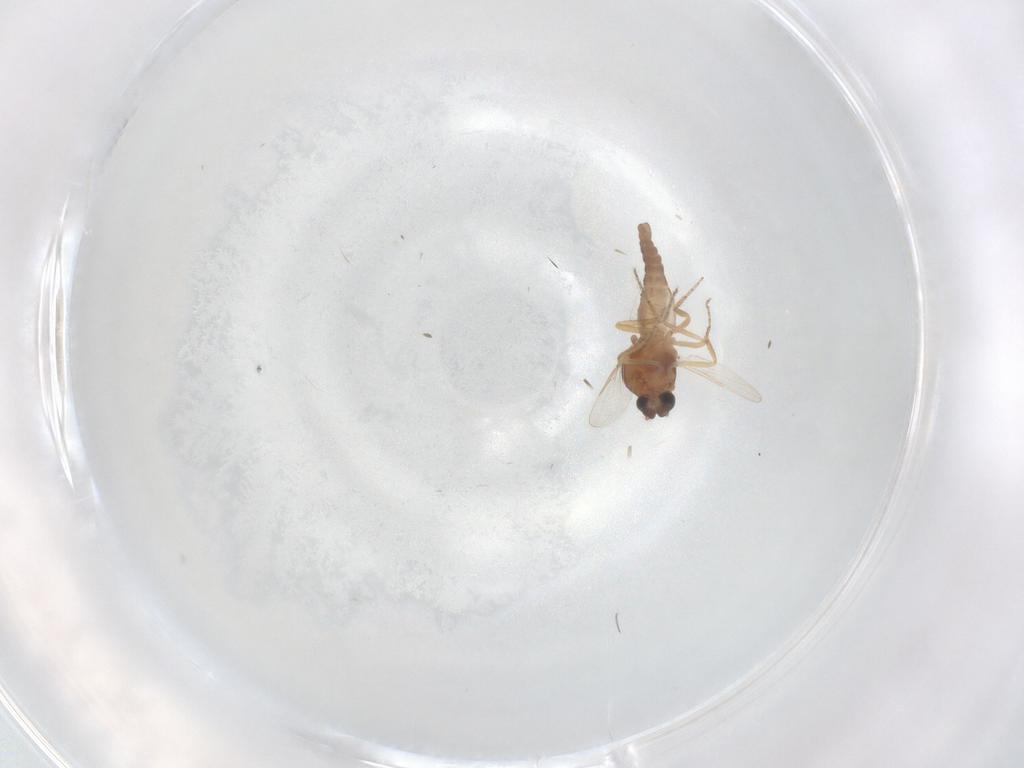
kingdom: Animalia
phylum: Arthropoda
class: Insecta
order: Diptera
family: Ceratopogonidae
